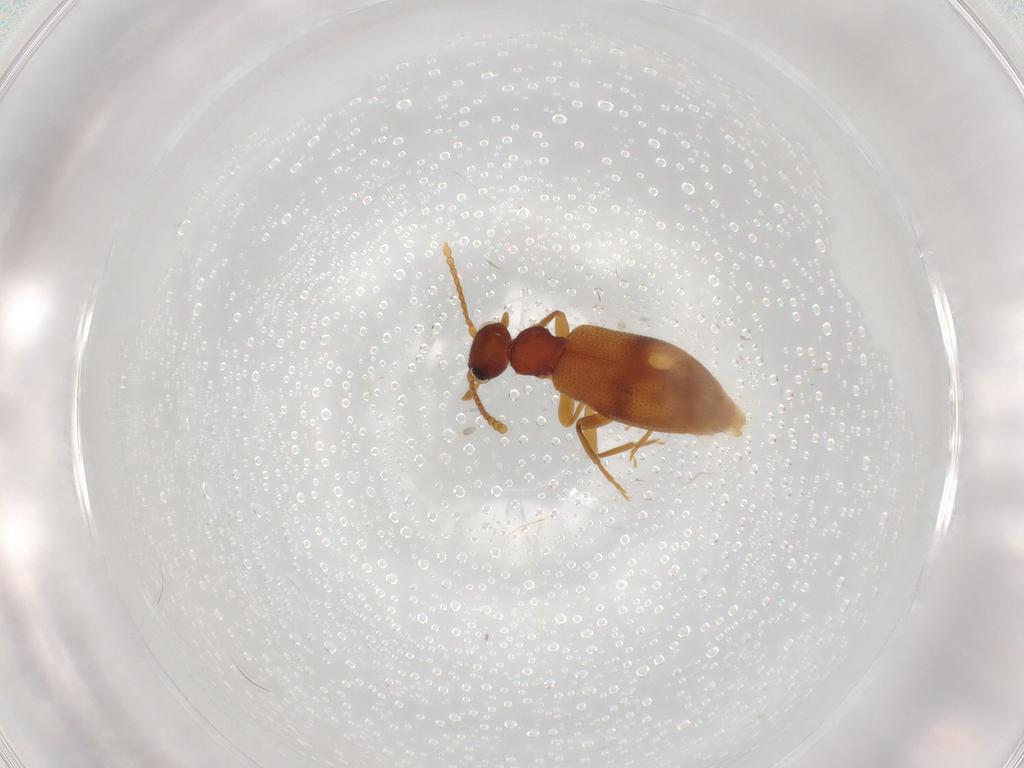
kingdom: Animalia
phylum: Arthropoda
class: Insecta
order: Coleoptera
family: Anthicidae
